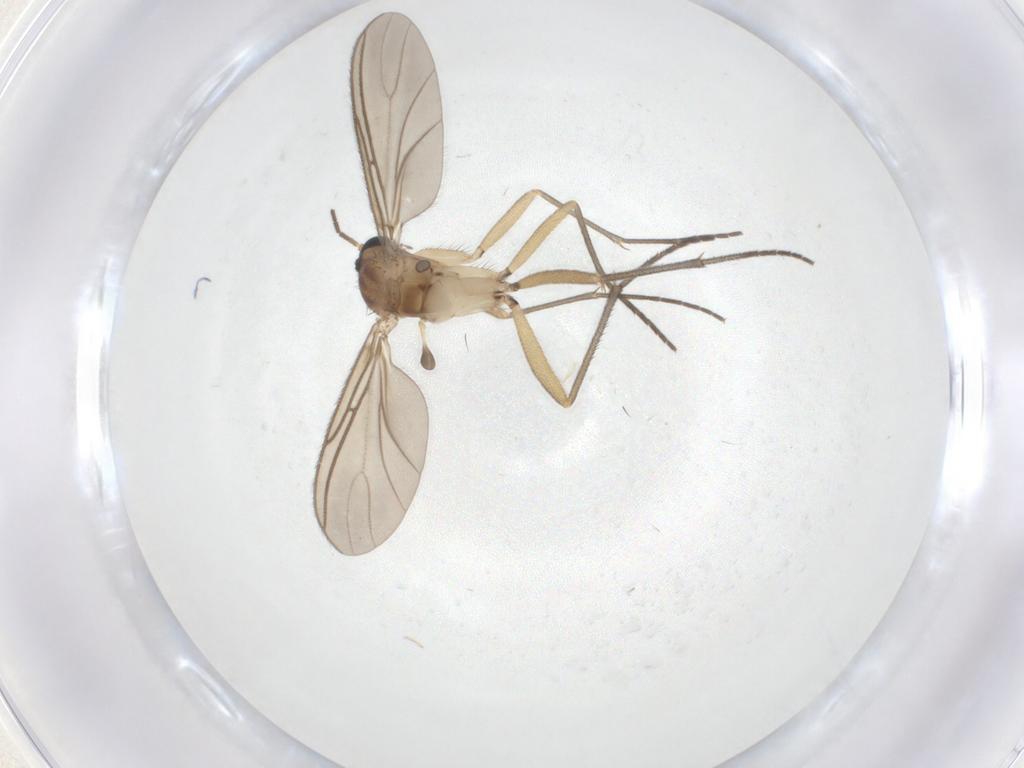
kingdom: Animalia
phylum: Arthropoda
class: Insecta
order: Diptera
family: Sciaridae
